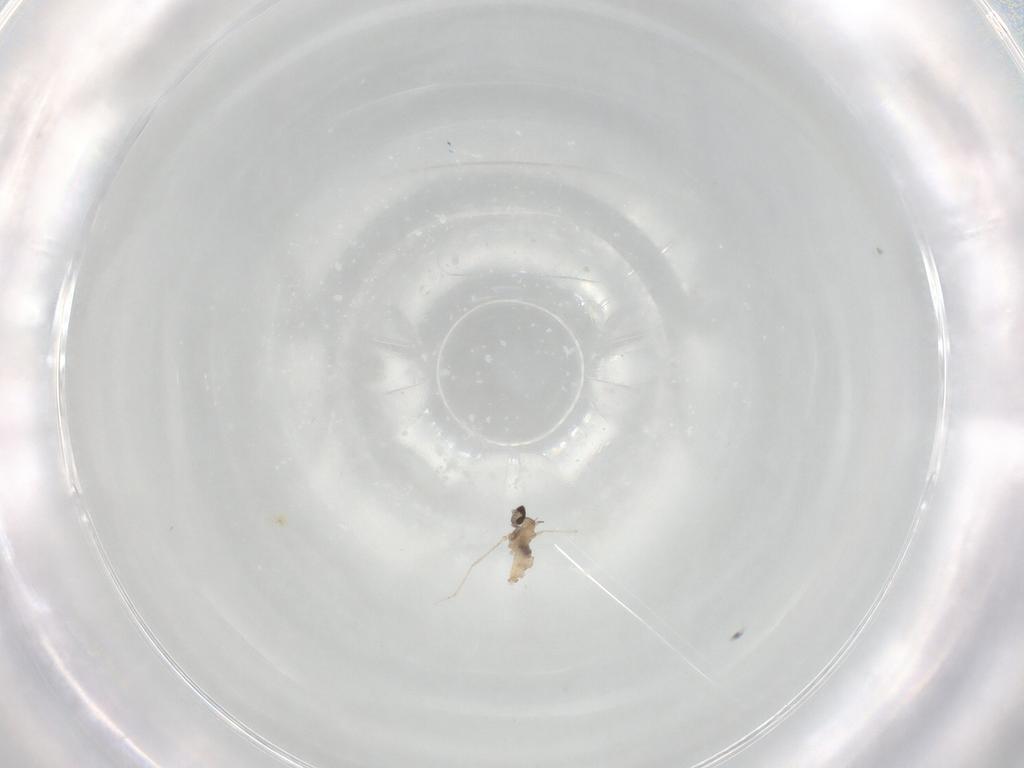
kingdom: Animalia
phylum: Arthropoda
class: Insecta
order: Diptera
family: Cecidomyiidae
